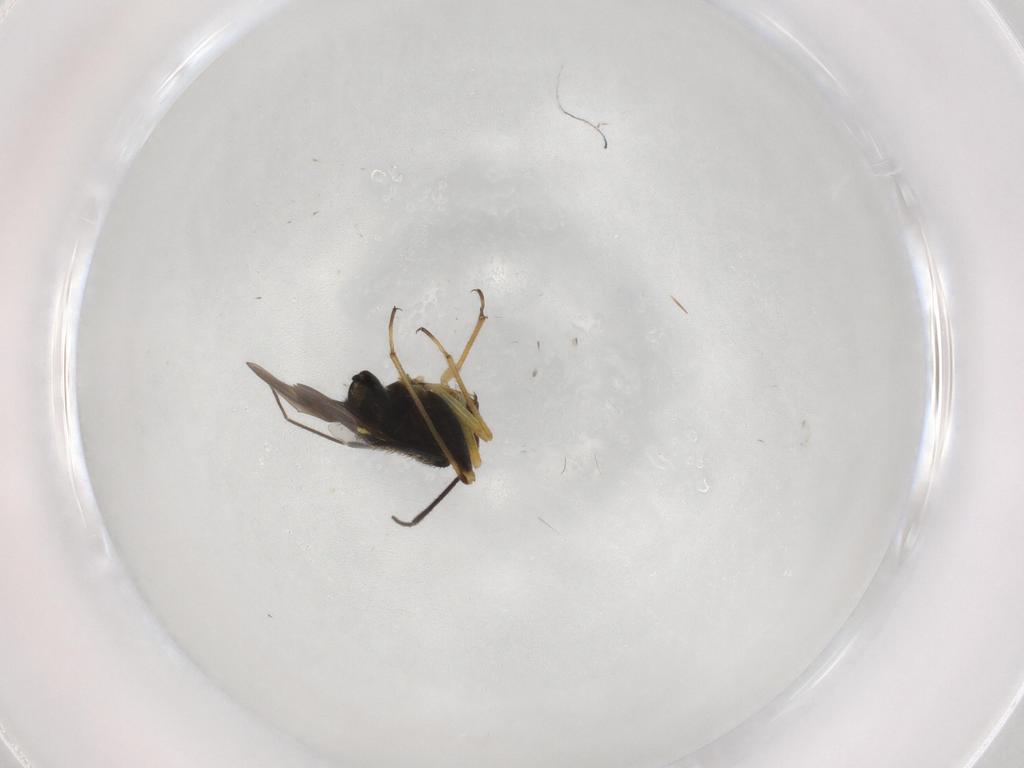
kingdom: Animalia
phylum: Arthropoda
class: Insecta
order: Hemiptera
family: Miridae
